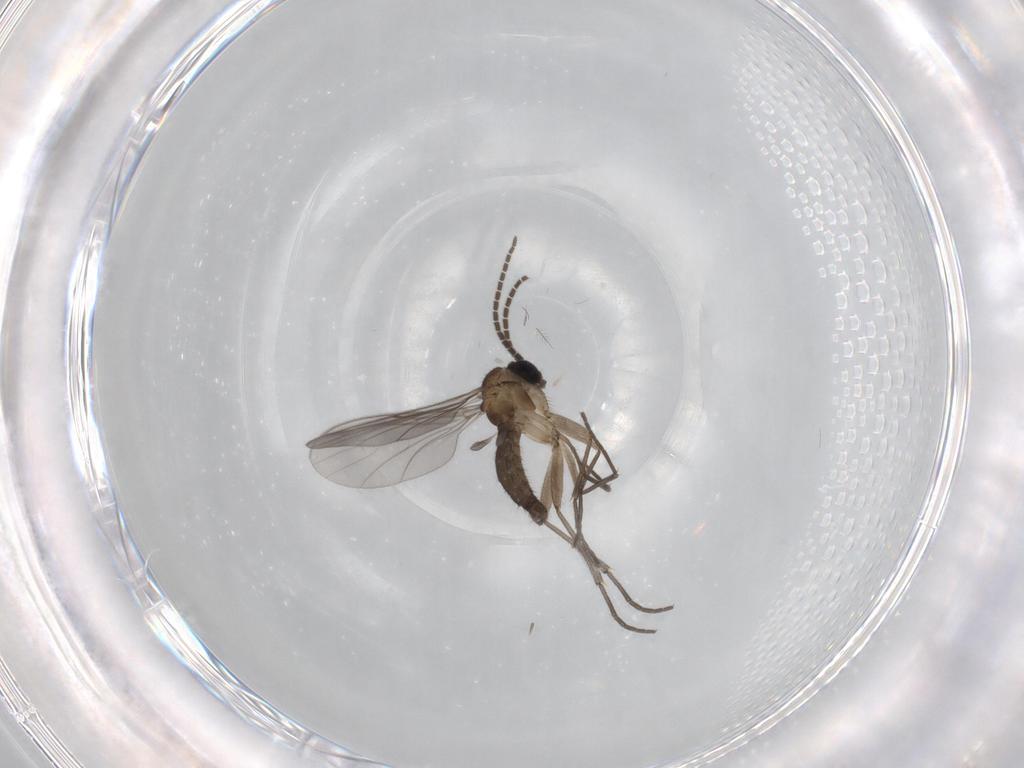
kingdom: Animalia
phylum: Arthropoda
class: Insecta
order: Diptera
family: Sciaridae
